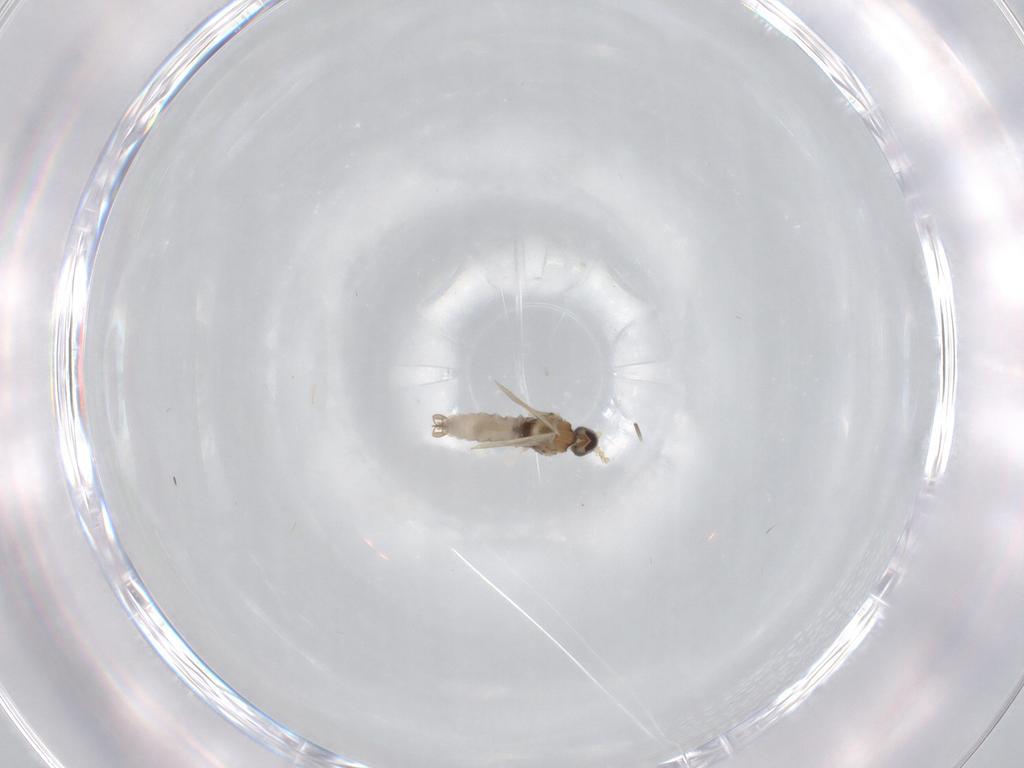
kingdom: Animalia
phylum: Arthropoda
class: Insecta
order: Diptera
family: Cecidomyiidae
